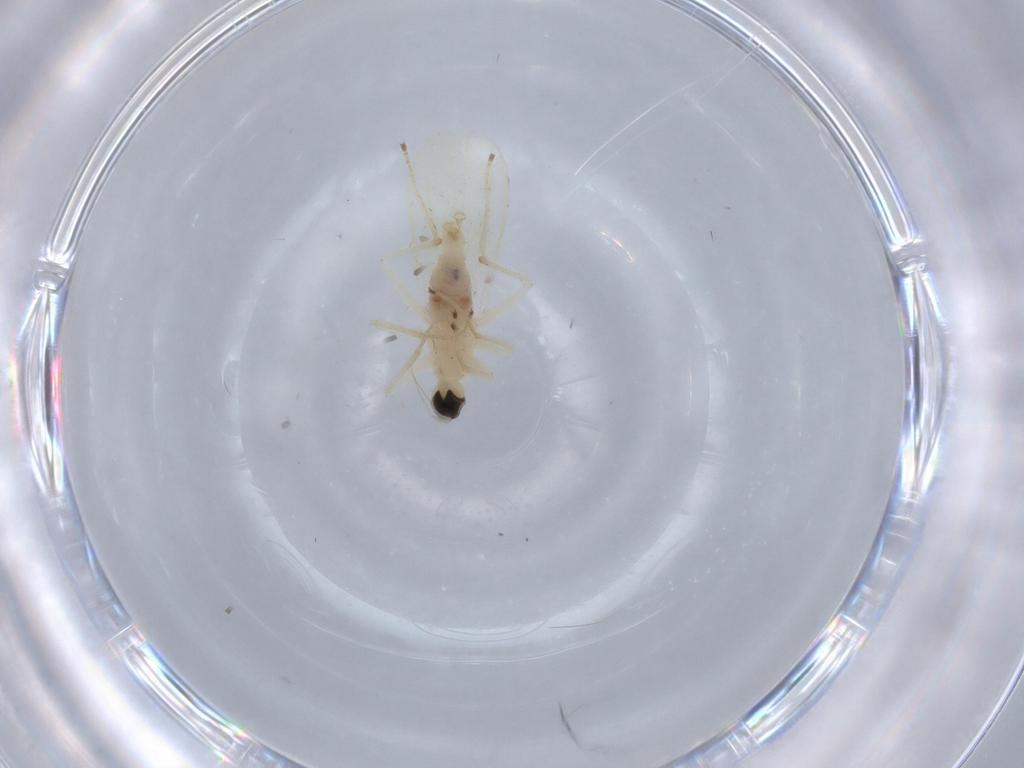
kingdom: Animalia
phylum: Arthropoda
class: Insecta
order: Diptera
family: Hybotidae
